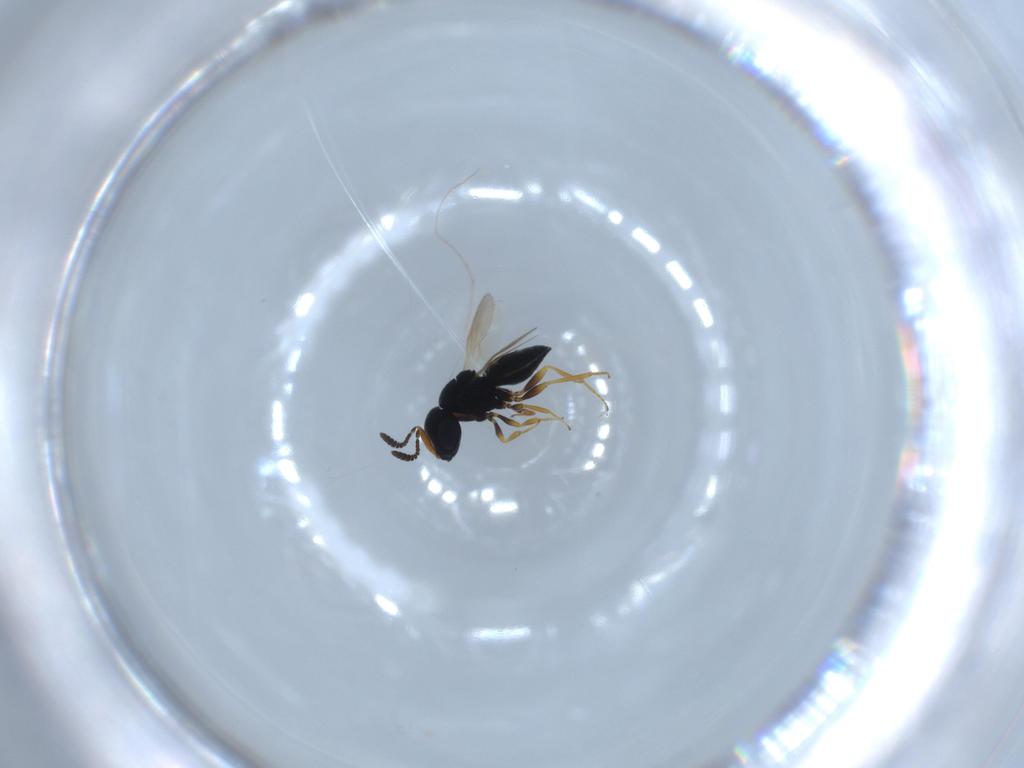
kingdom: Animalia
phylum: Arthropoda
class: Insecta
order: Hymenoptera
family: Scelionidae
